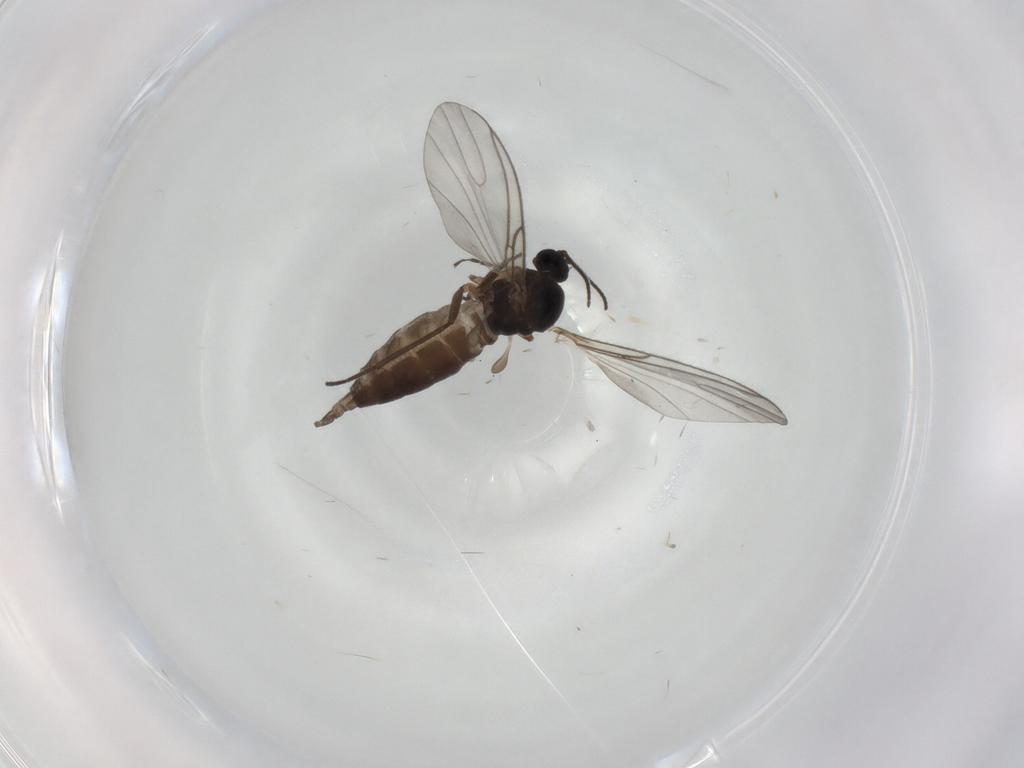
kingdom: Animalia
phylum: Arthropoda
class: Insecta
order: Diptera
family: Sciaridae
